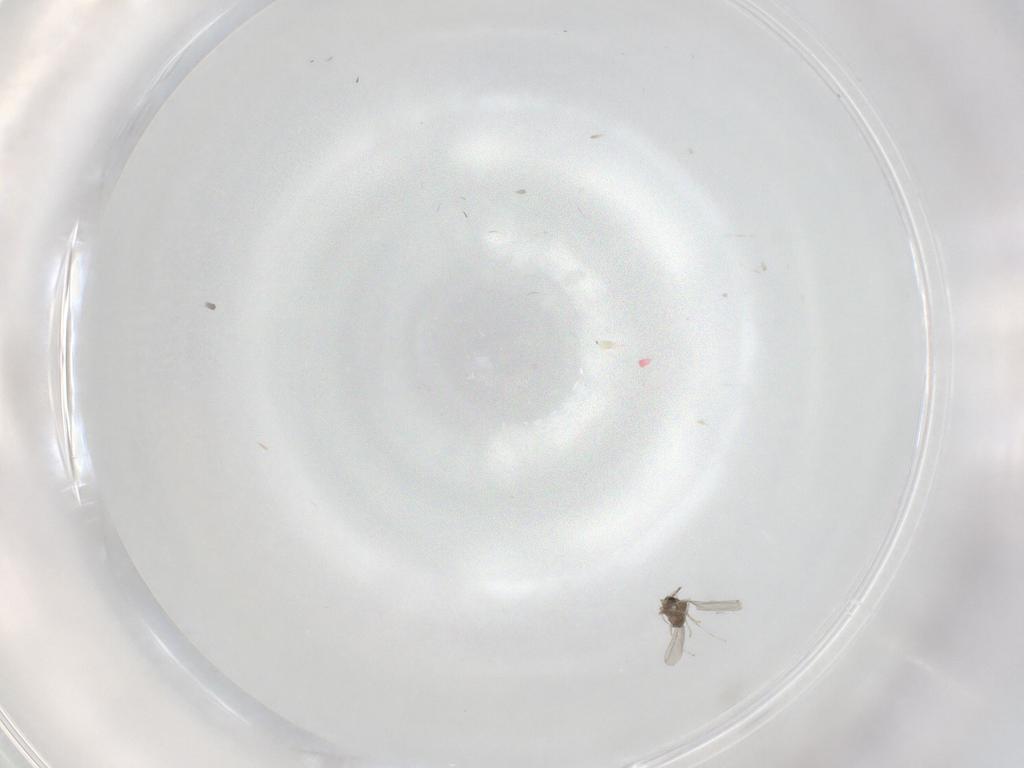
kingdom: Animalia
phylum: Arthropoda
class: Insecta
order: Diptera
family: Cecidomyiidae
